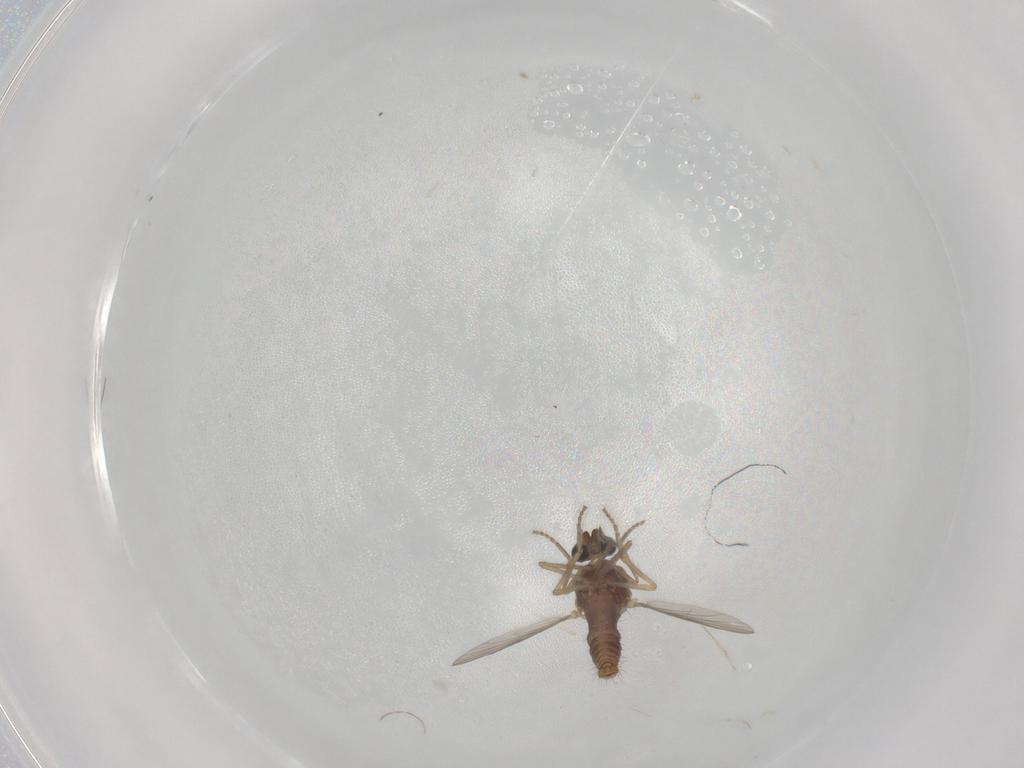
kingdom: Animalia
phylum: Arthropoda
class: Insecta
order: Diptera
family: Ceratopogonidae
